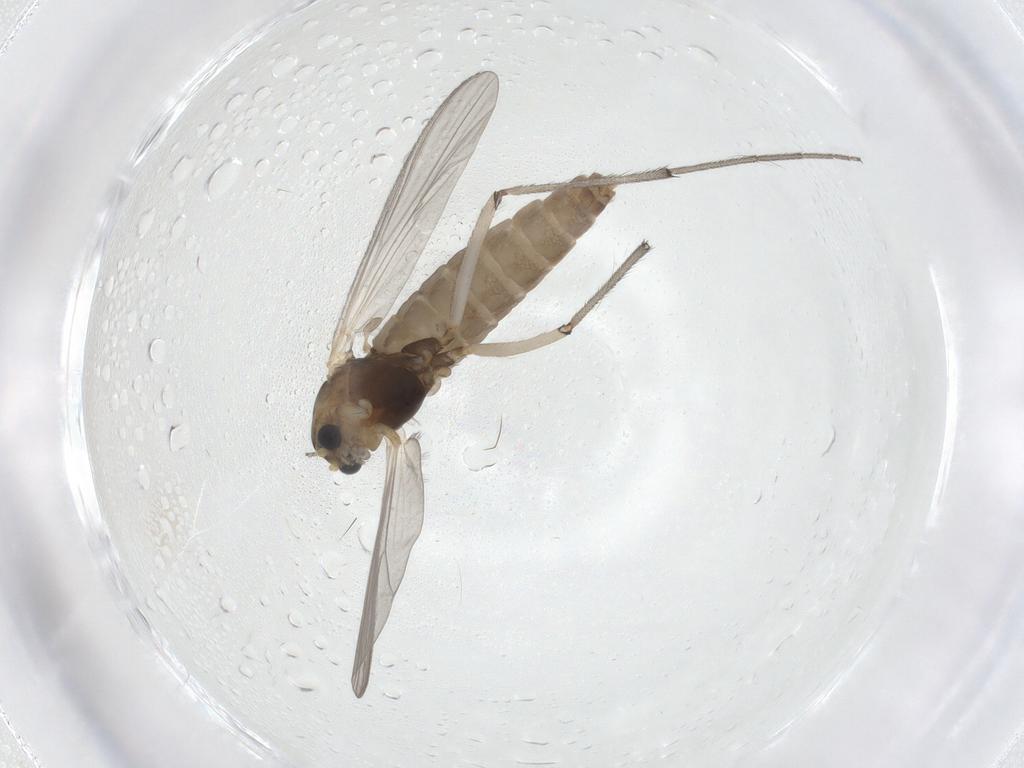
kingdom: Animalia
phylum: Arthropoda
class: Insecta
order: Diptera
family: Chironomidae
